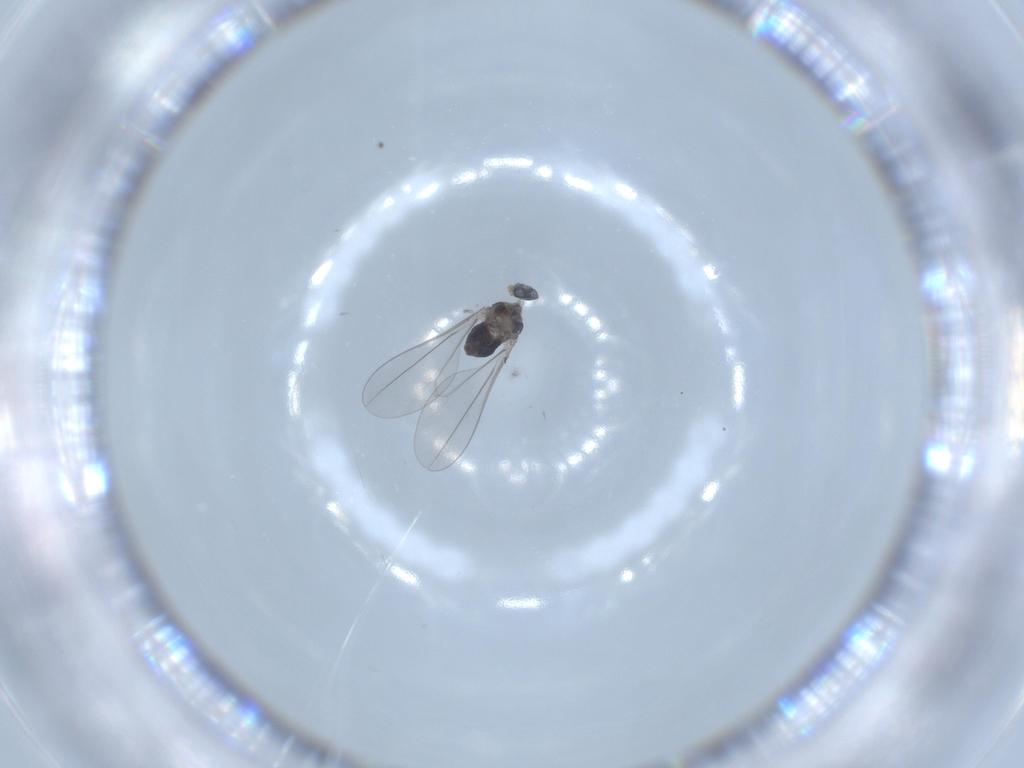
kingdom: Animalia
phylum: Arthropoda
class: Insecta
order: Diptera
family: Cecidomyiidae
